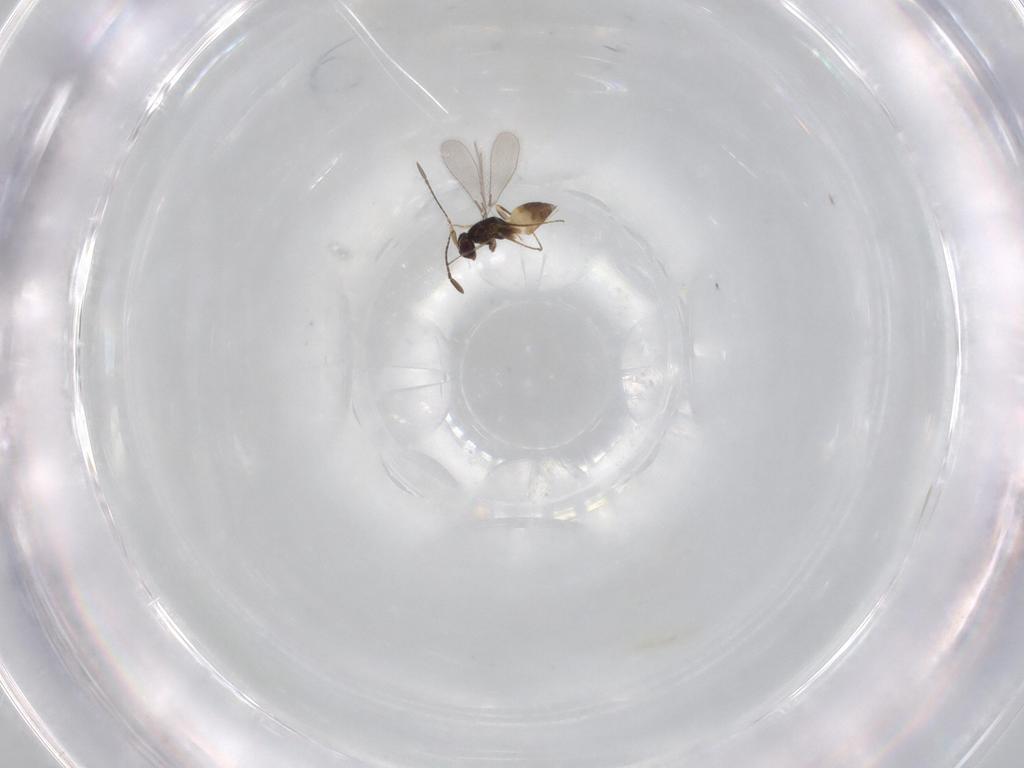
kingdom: Animalia
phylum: Arthropoda
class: Insecta
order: Hymenoptera
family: Mymaridae
